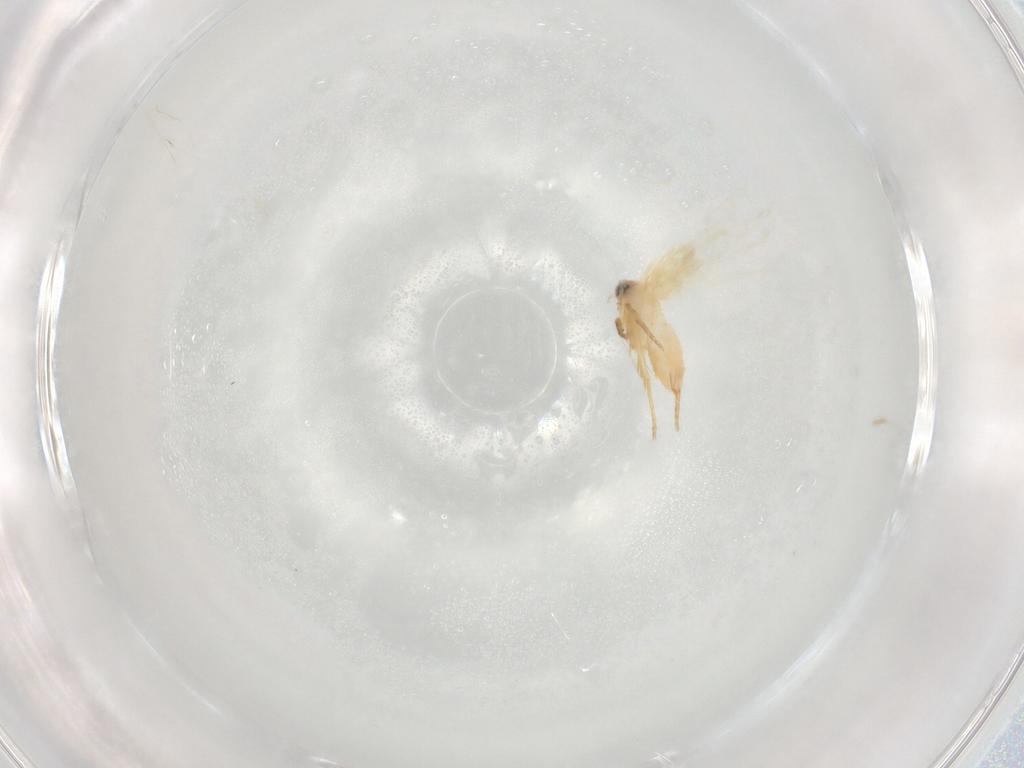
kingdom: Animalia
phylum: Arthropoda
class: Insecta
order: Lepidoptera
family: Nepticulidae
